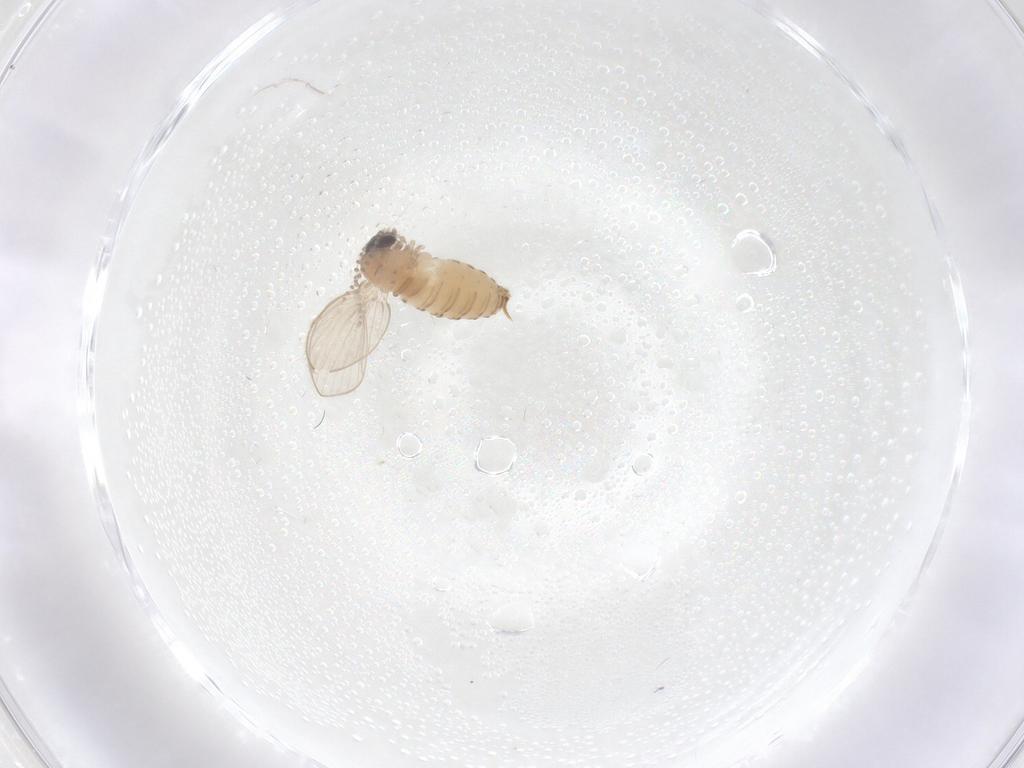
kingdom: Animalia
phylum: Arthropoda
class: Insecta
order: Diptera
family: Psychodidae
